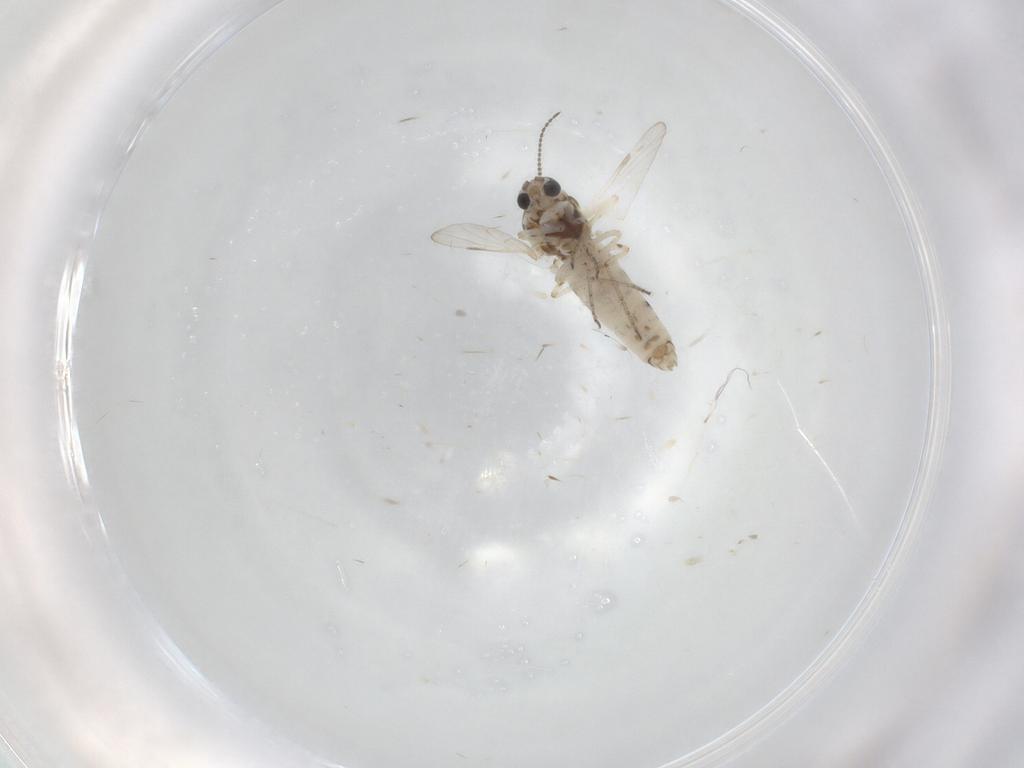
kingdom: Animalia
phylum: Arthropoda
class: Insecta
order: Diptera
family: Ceratopogonidae
